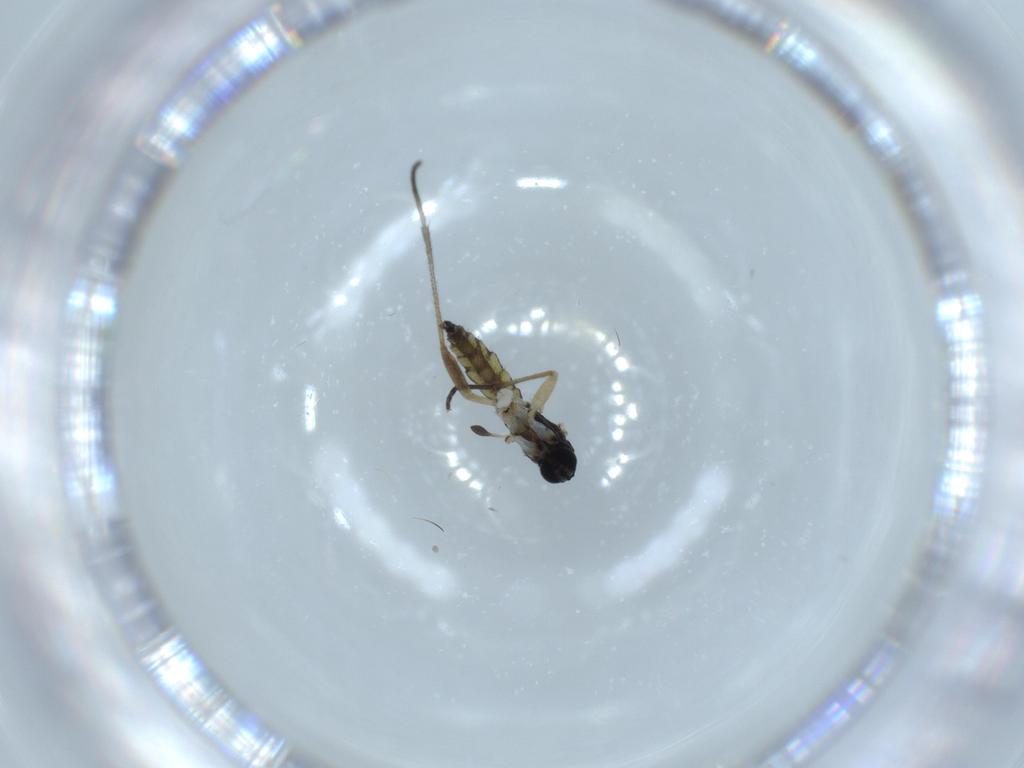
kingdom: Animalia
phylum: Arthropoda
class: Insecta
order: Diptera
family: Sciaridae
